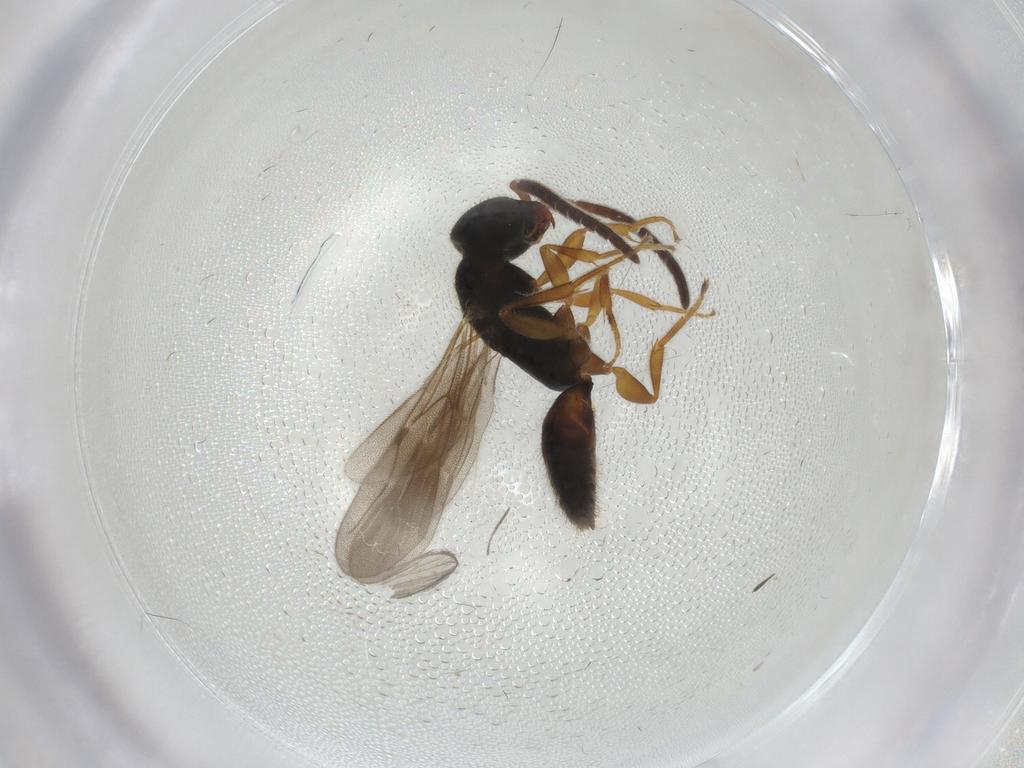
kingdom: Animalia
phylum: Arthropoda
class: Insecta
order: Hymenoptera
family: Bethylidae
